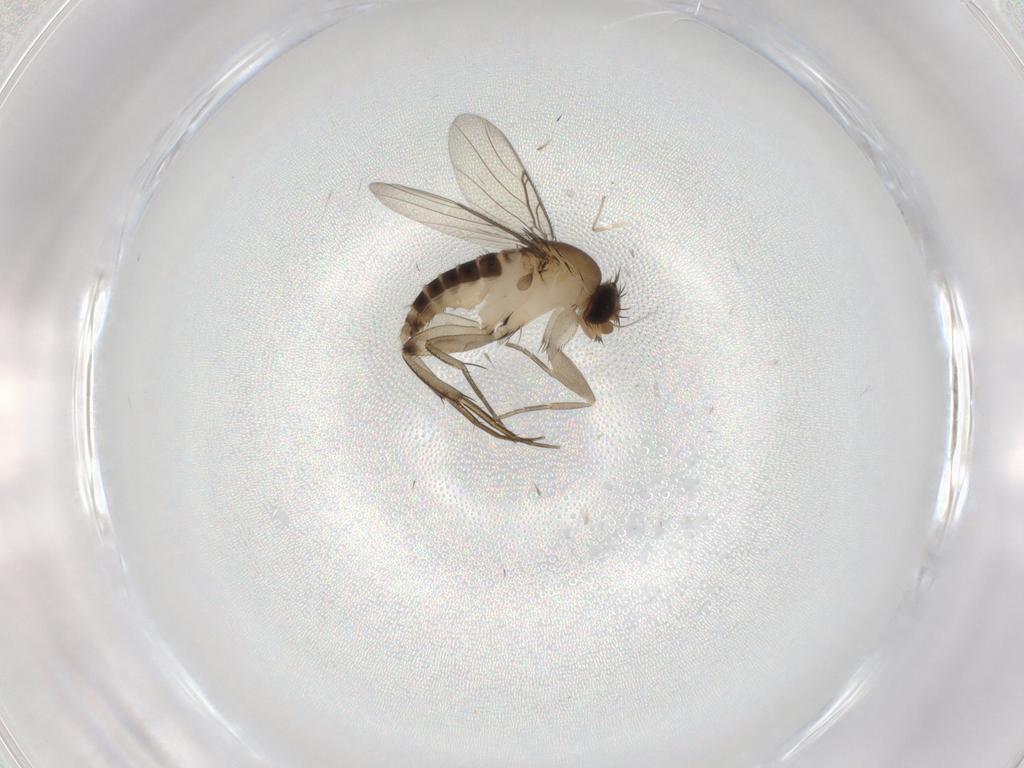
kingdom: Animalia
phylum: Arthropoda
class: Insecta
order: Diptera
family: Phoridae
